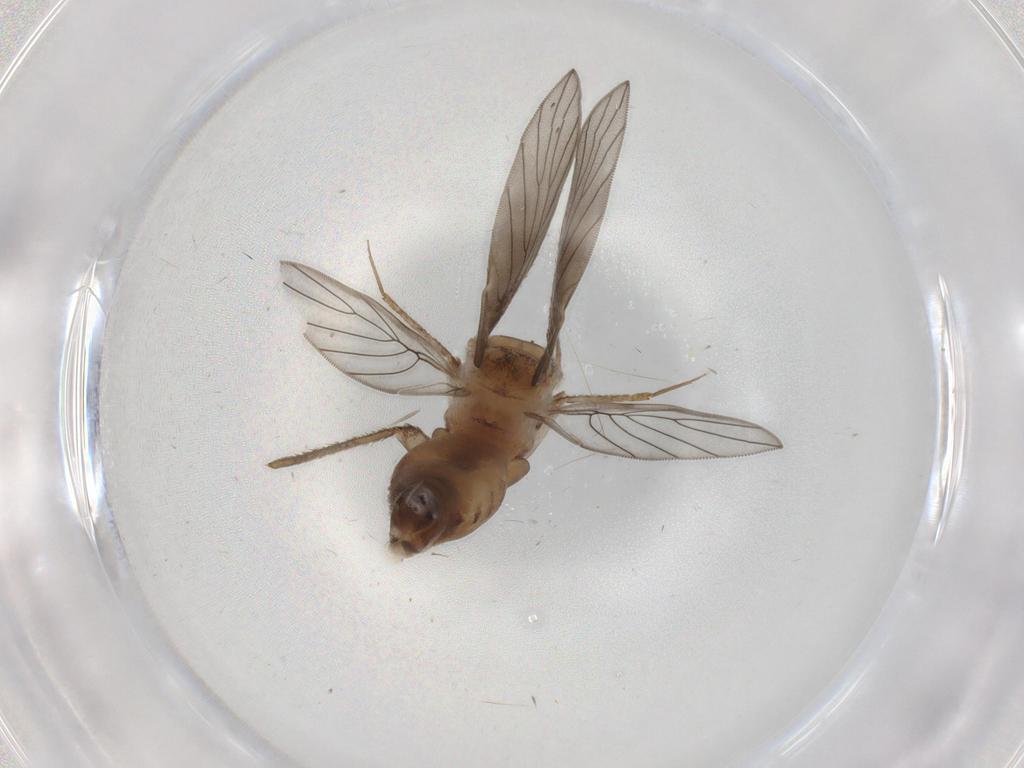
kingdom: Animalia
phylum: Arthropoda
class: Insecta
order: Psocodea
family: Lepidopsocidae
